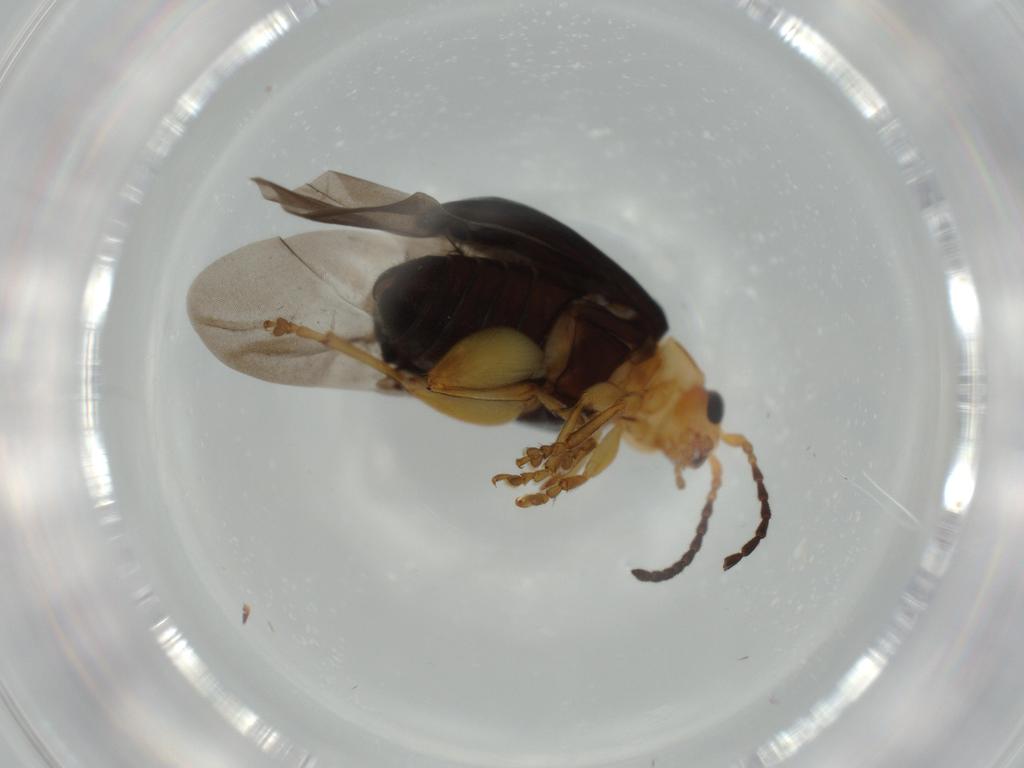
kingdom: Animalia
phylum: Arthropoda
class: Insecta
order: Coleoptera
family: Chrysomelidae
